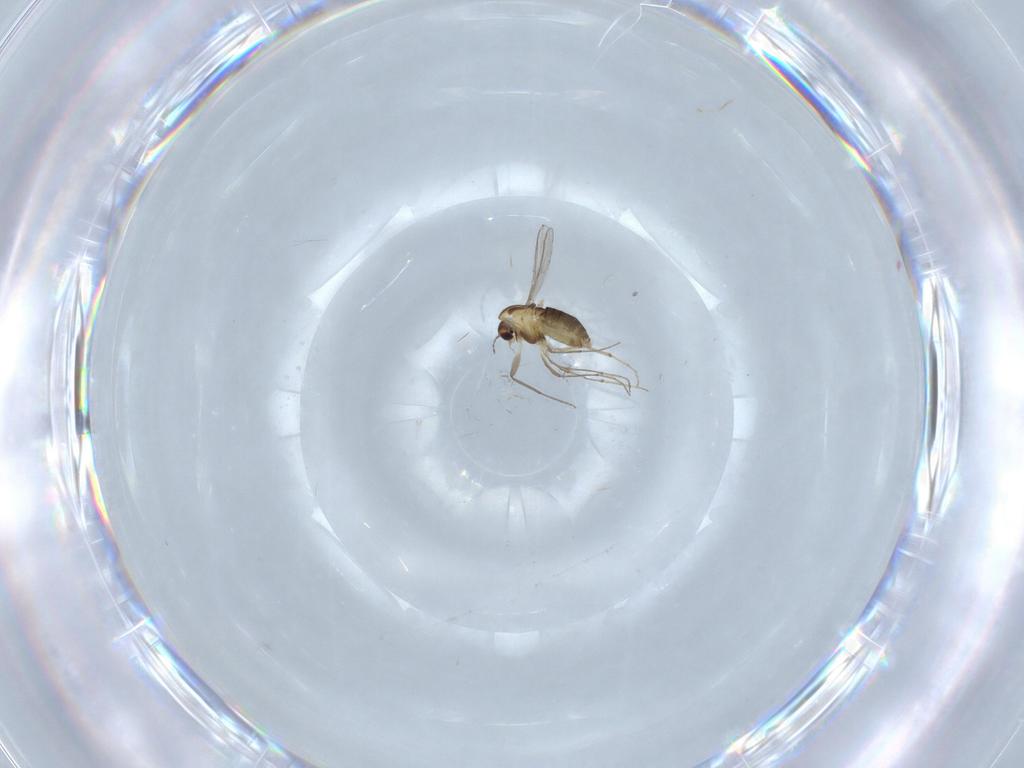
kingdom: Animalia
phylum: Arthropoda
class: Insecta
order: Diptera
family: Chironomidae
